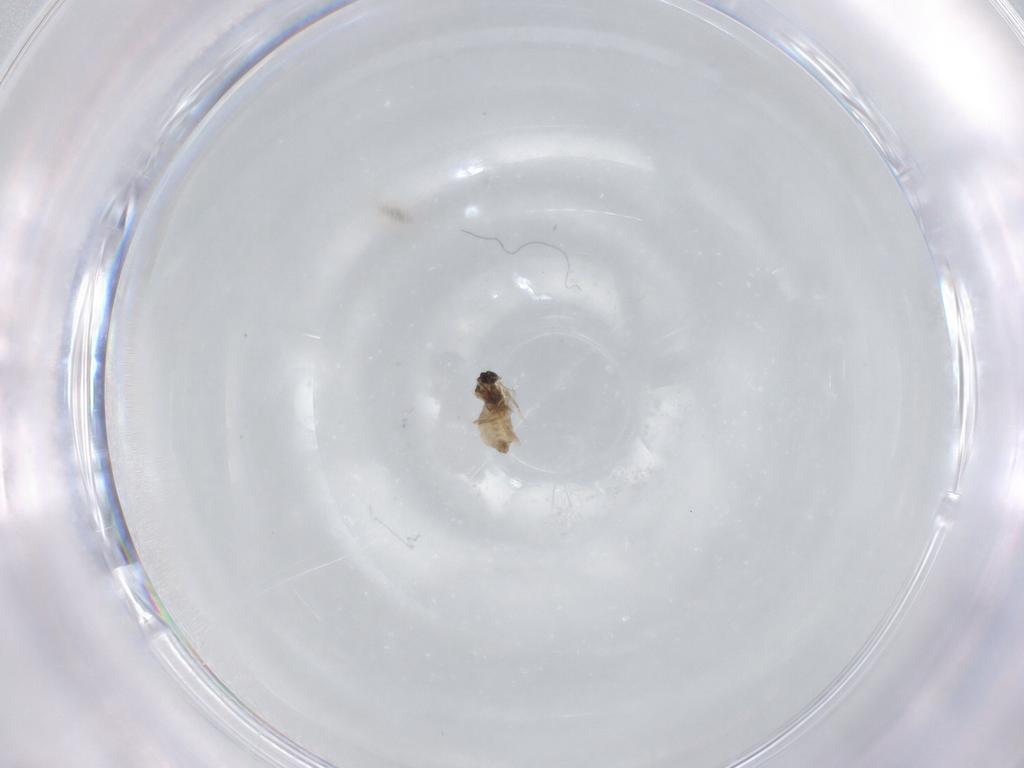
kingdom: Animalia
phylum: Arthropoda
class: Insecta
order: Diptera
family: Cecidomyiidae
